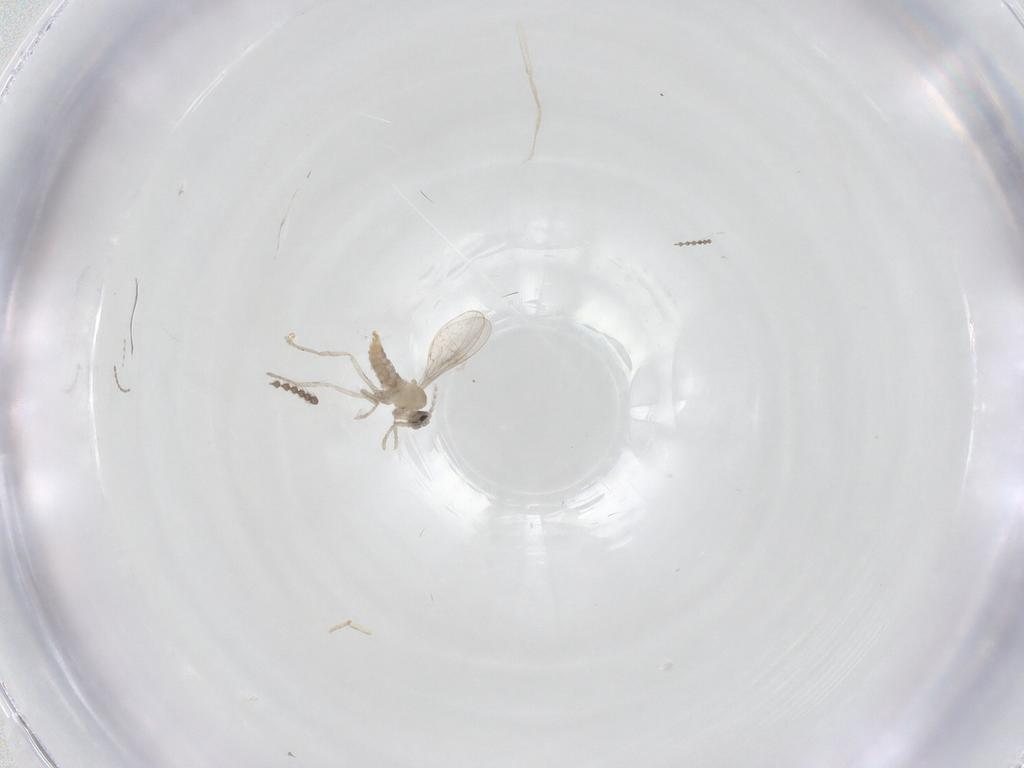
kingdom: Animalia
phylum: Arthropoda
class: Insecta
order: Diptera
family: Cecidomyiidae
